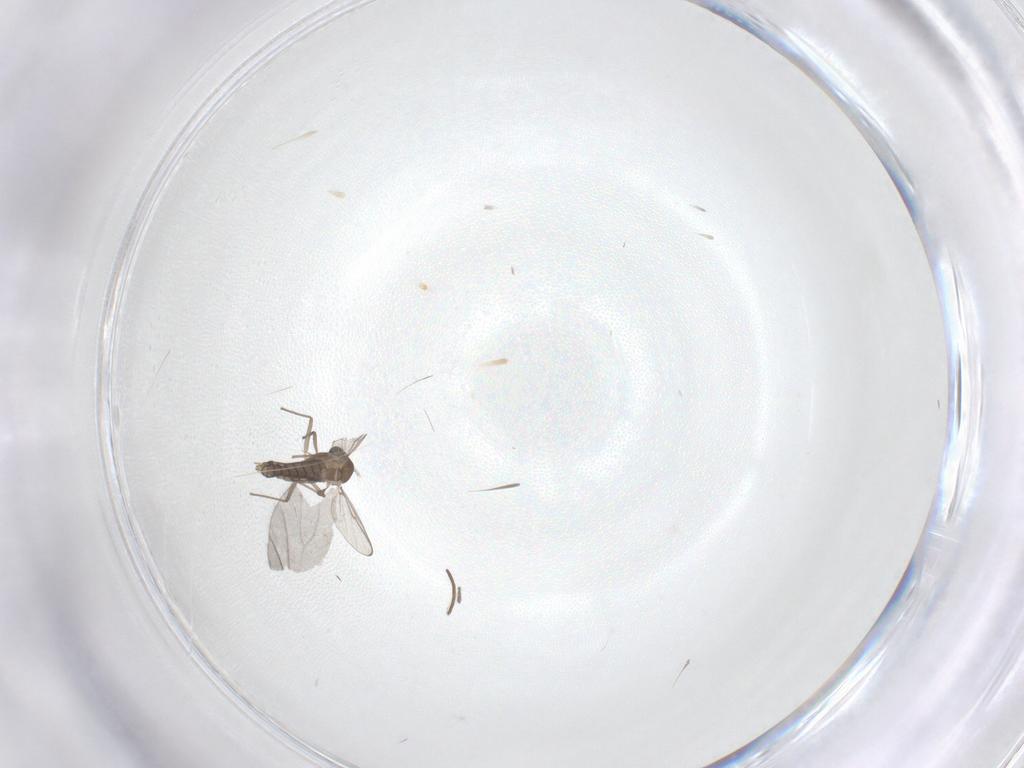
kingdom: Animalia
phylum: Arthropoda
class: Insecta
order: Diptera
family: Chironomidae
